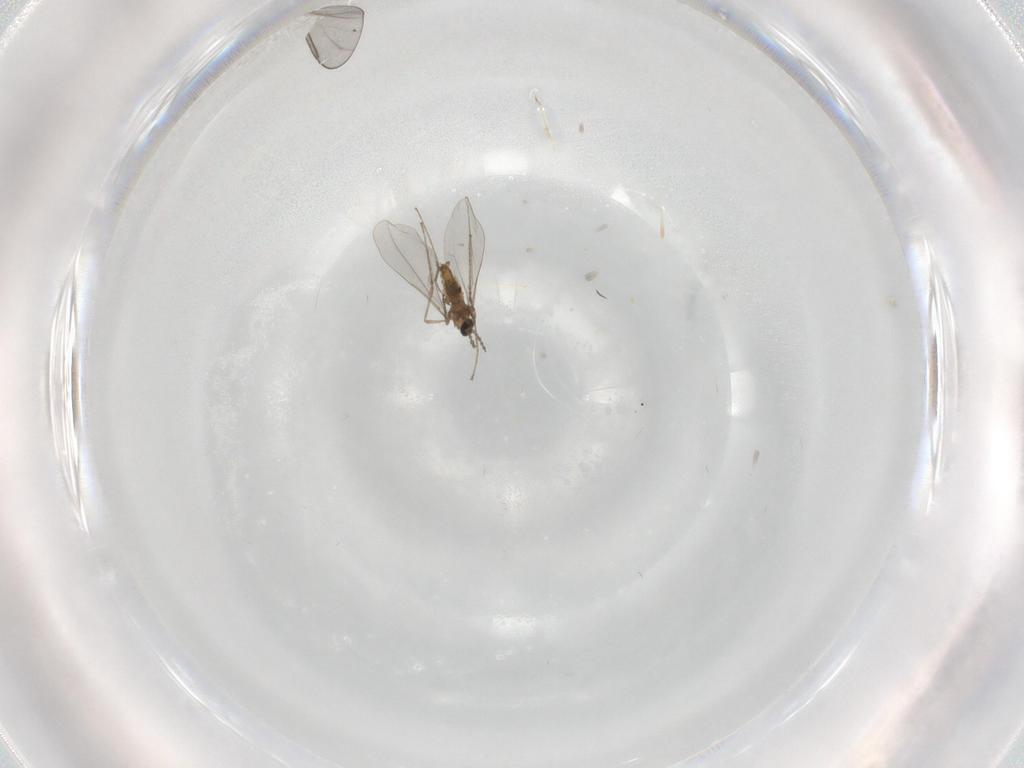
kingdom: Animalia
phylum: Arthropoda
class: Insecta
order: Diptera
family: Cecidomyiidae
